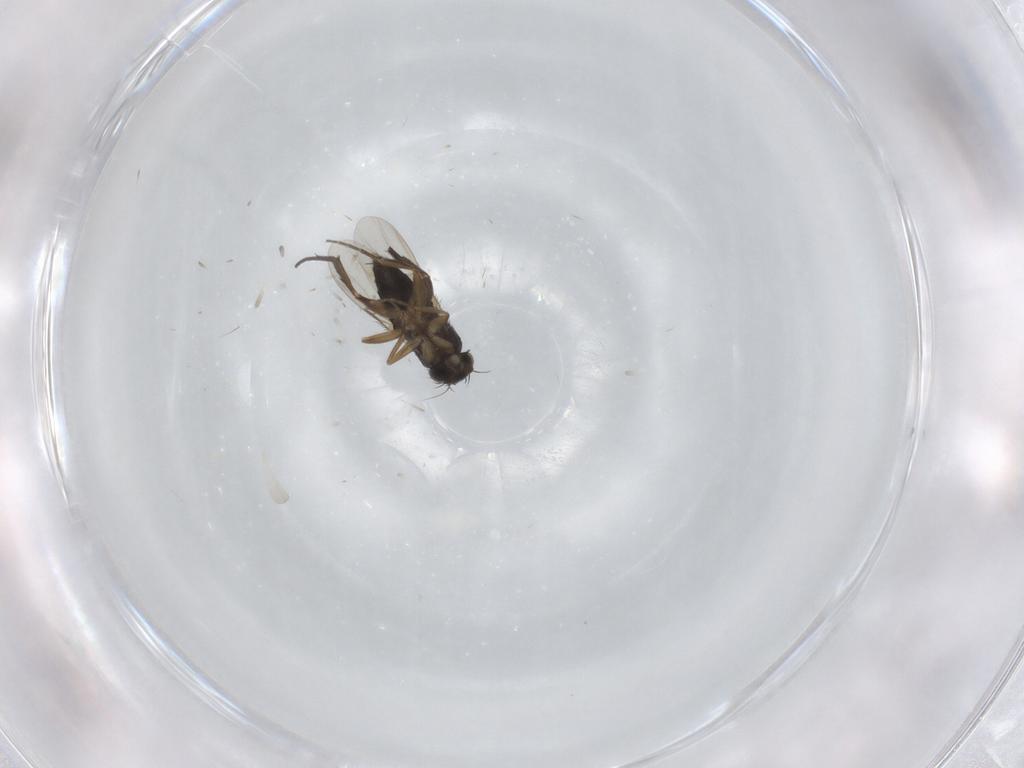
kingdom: Animalia
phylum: Arthropoda
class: Insecta
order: Diptera
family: Phoridae
